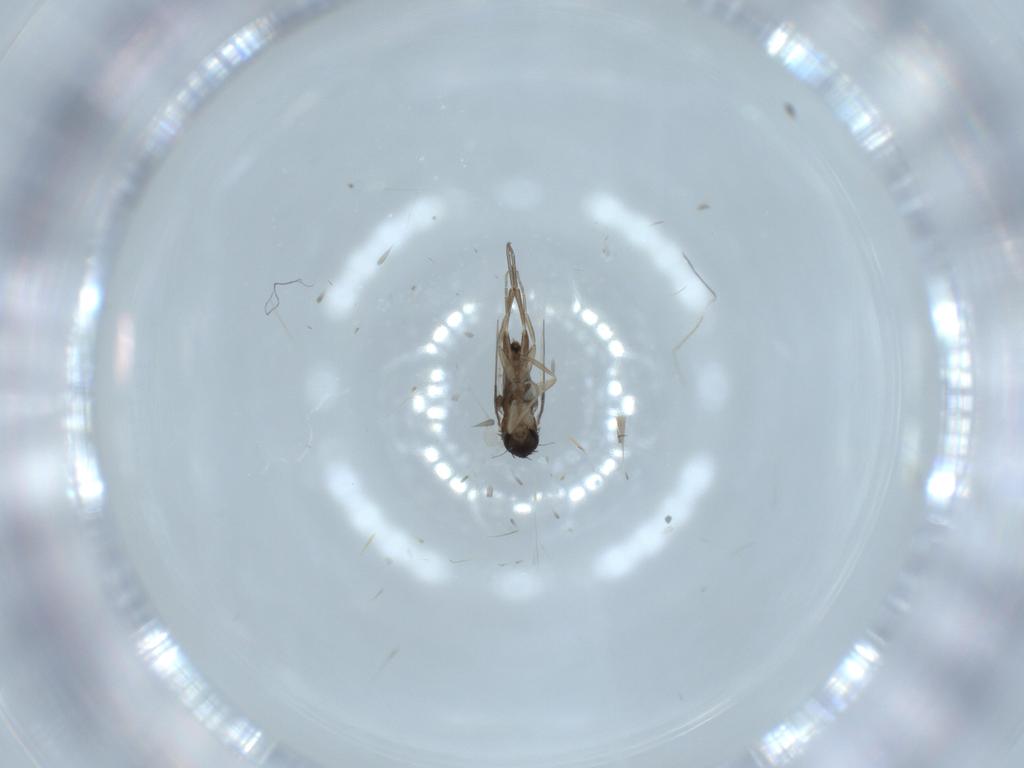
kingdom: Animalia
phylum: Arthropoda
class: Insecta
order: Diptera
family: Phoridae
